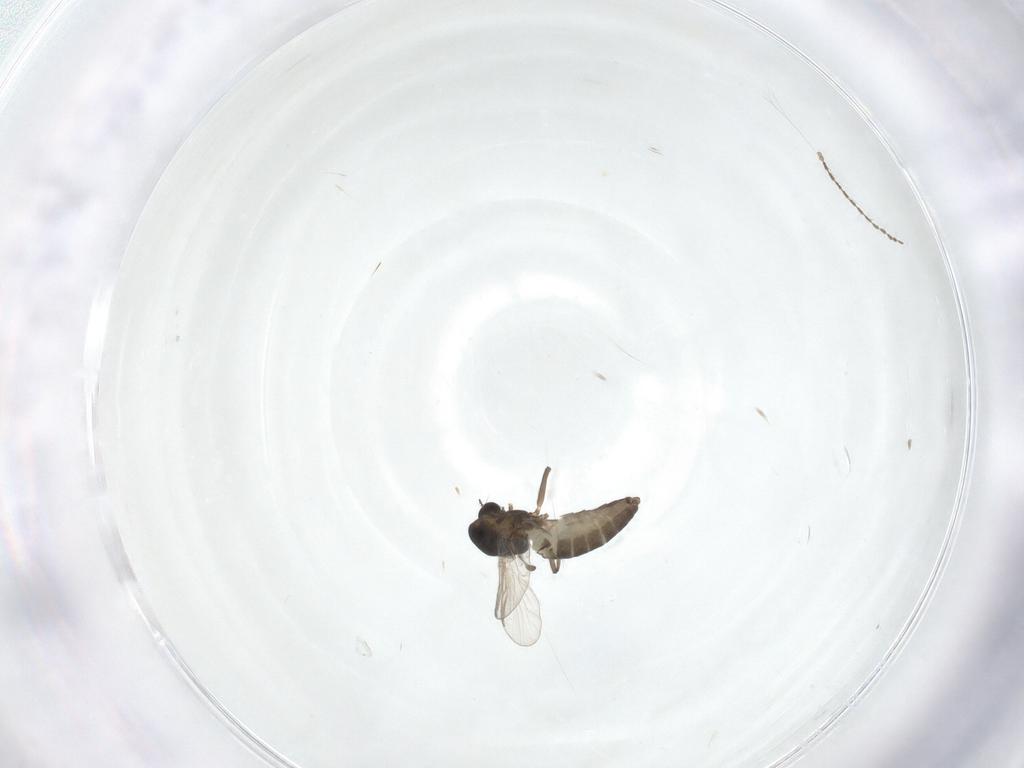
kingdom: Animalia
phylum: Arthropoda
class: Insecta
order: Diptera
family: Chironomidae
